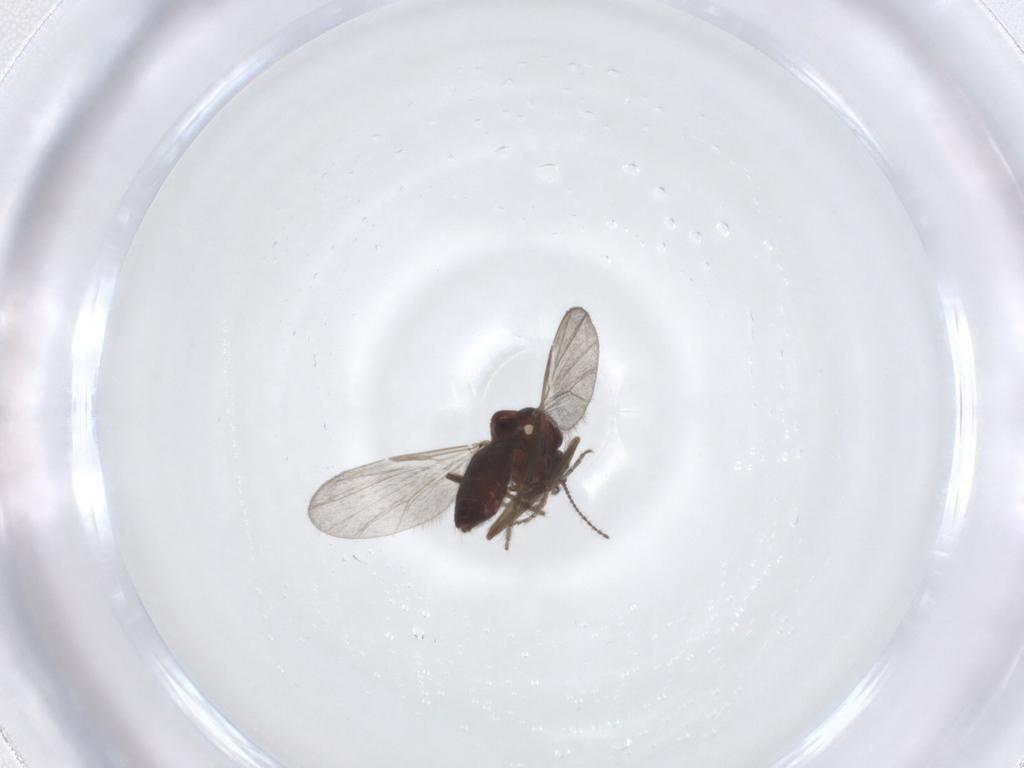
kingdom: Animalia
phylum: Arthropoda
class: Insecta
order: Diptera
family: Ceratopogonidae
